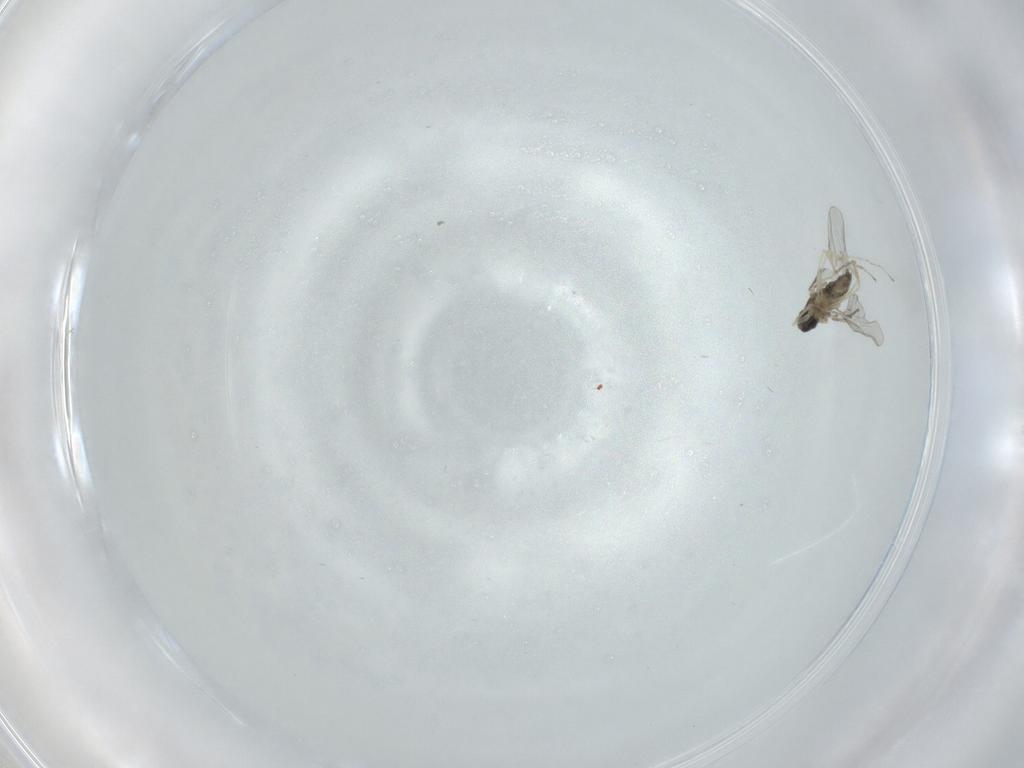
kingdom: Animalia
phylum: Arthropoda
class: Insecta
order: Diptera
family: Cecidomyiidae
